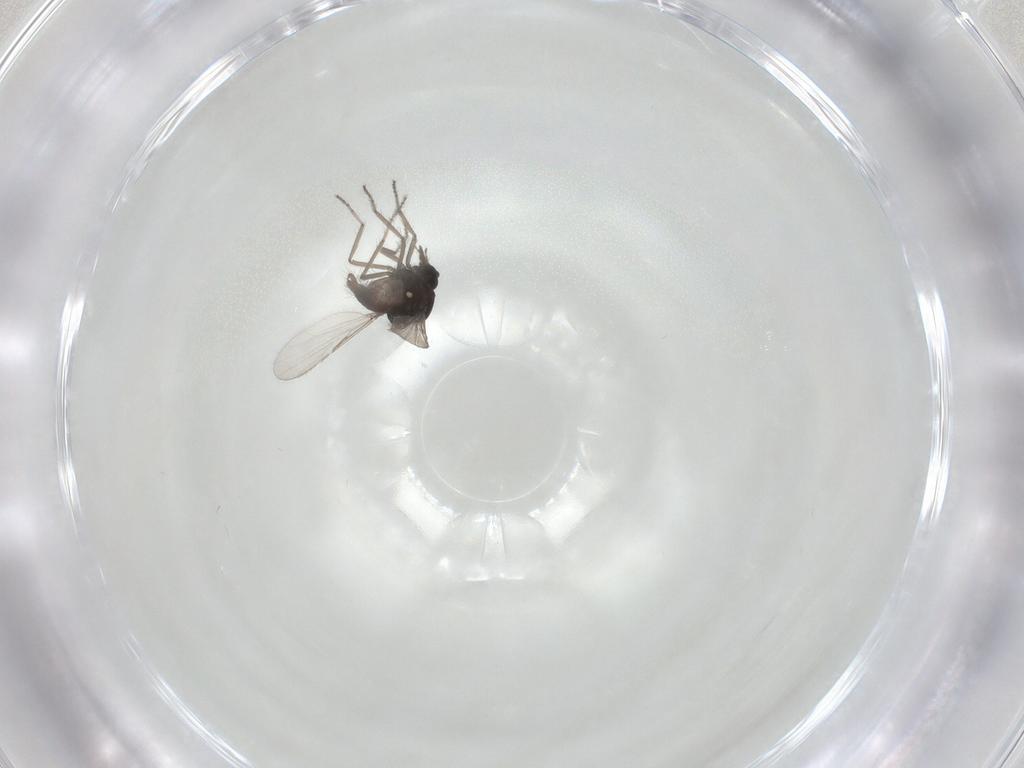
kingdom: Animalia
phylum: Arthropoda
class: Insecta
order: Diptera
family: Ceratopogonidae
